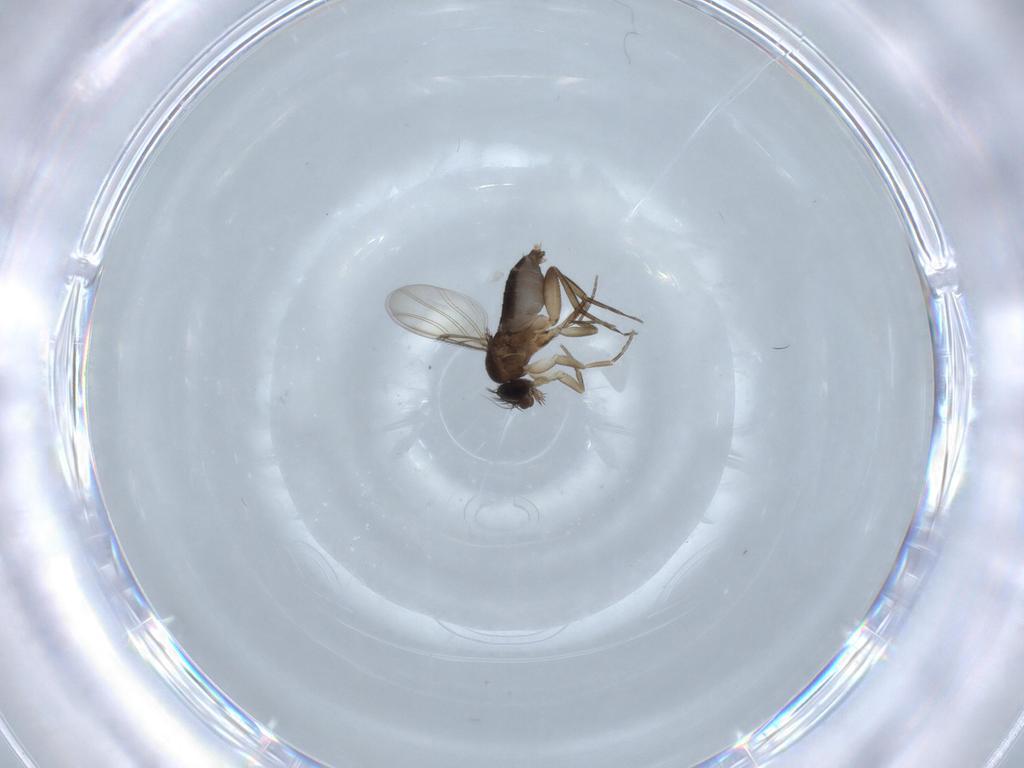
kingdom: Animalia
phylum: Arthropoda
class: Insecta
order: Diptera
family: Phoridae
